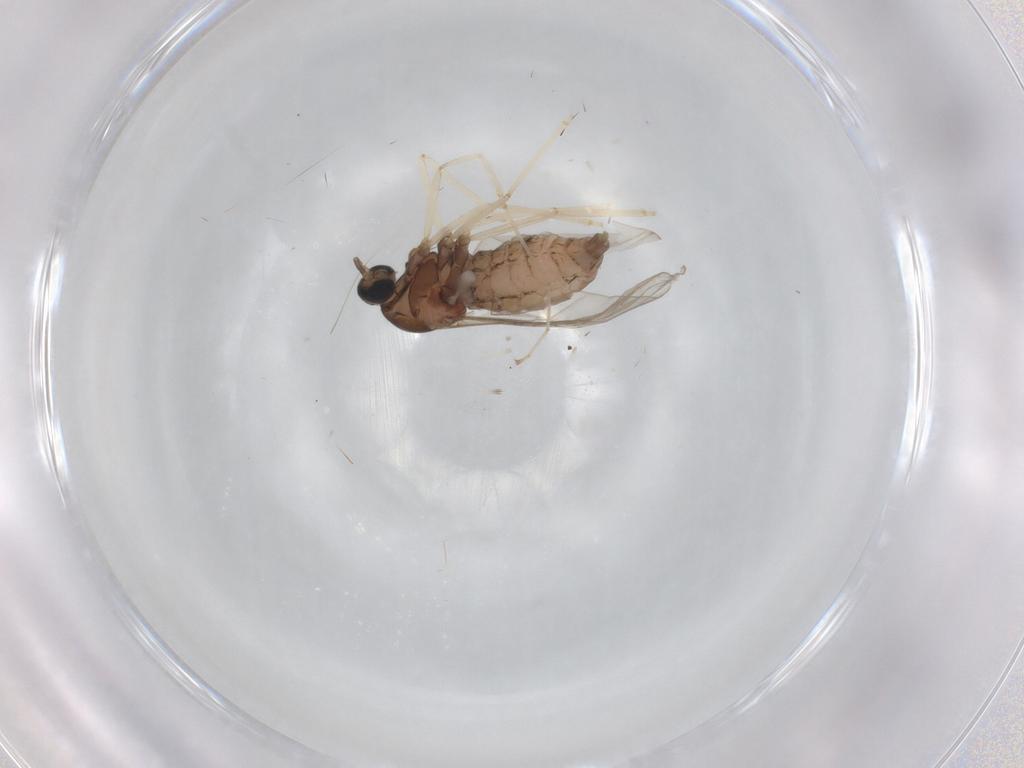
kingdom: Animalia
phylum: Arthropoda
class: Insecta
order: Diptera
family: Cecidomyiidae
